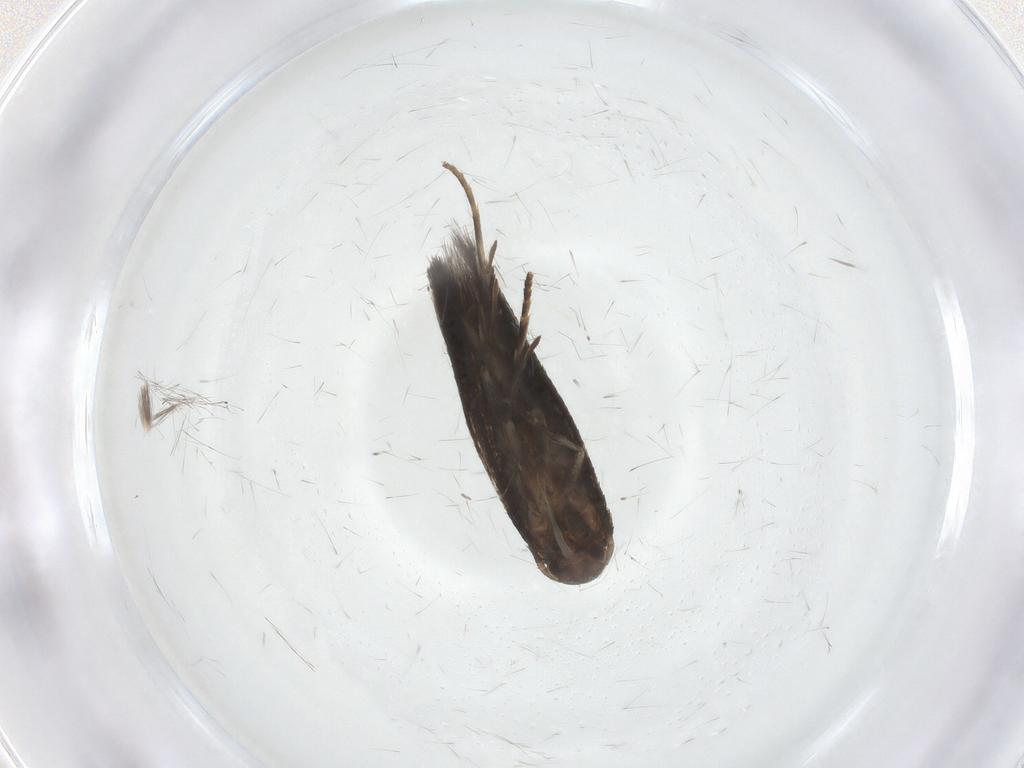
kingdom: Animalia
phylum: Arthropoda
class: Insecta
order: Lepidoptera
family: Elachistidae
